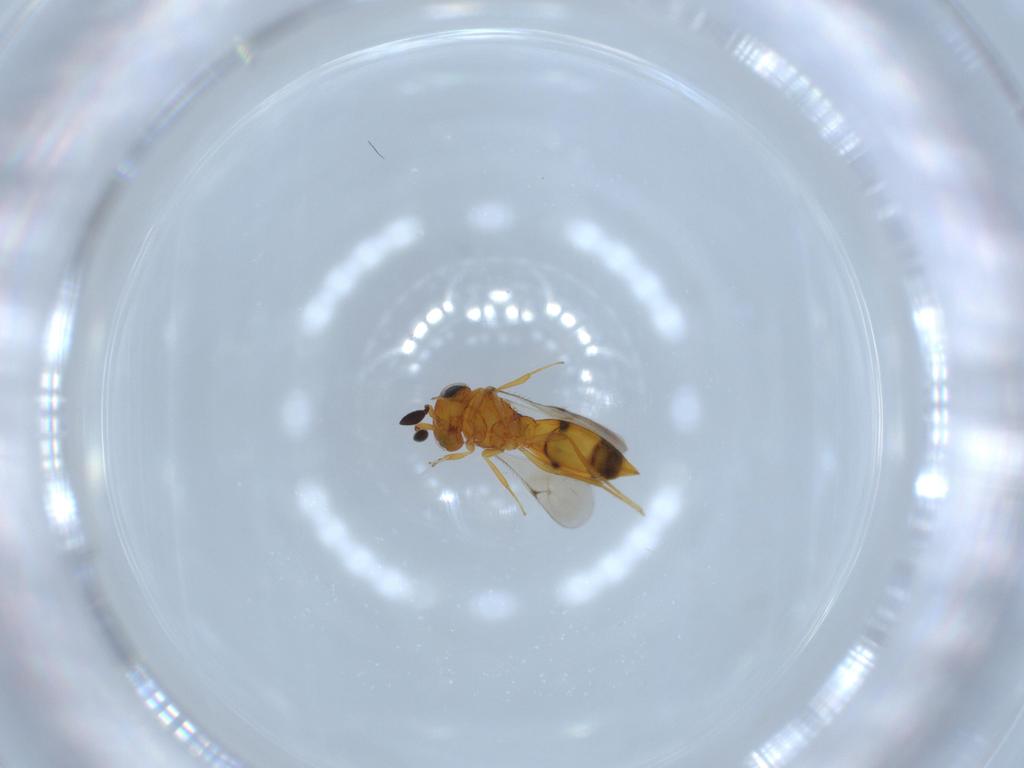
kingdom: Animalia
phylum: Arthropoda
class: Insecta
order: Hymenoptera
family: Scelionidae
